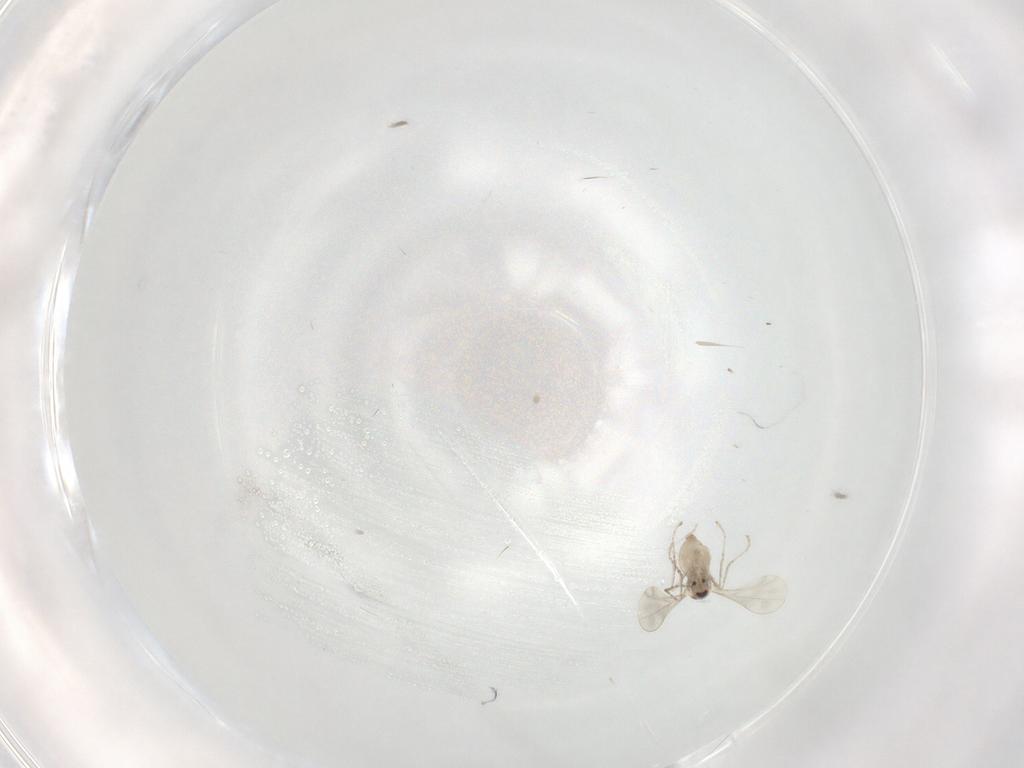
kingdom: Animalia
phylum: Arthropoda
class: Insecta
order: Diptera
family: Cecidomyiidae
